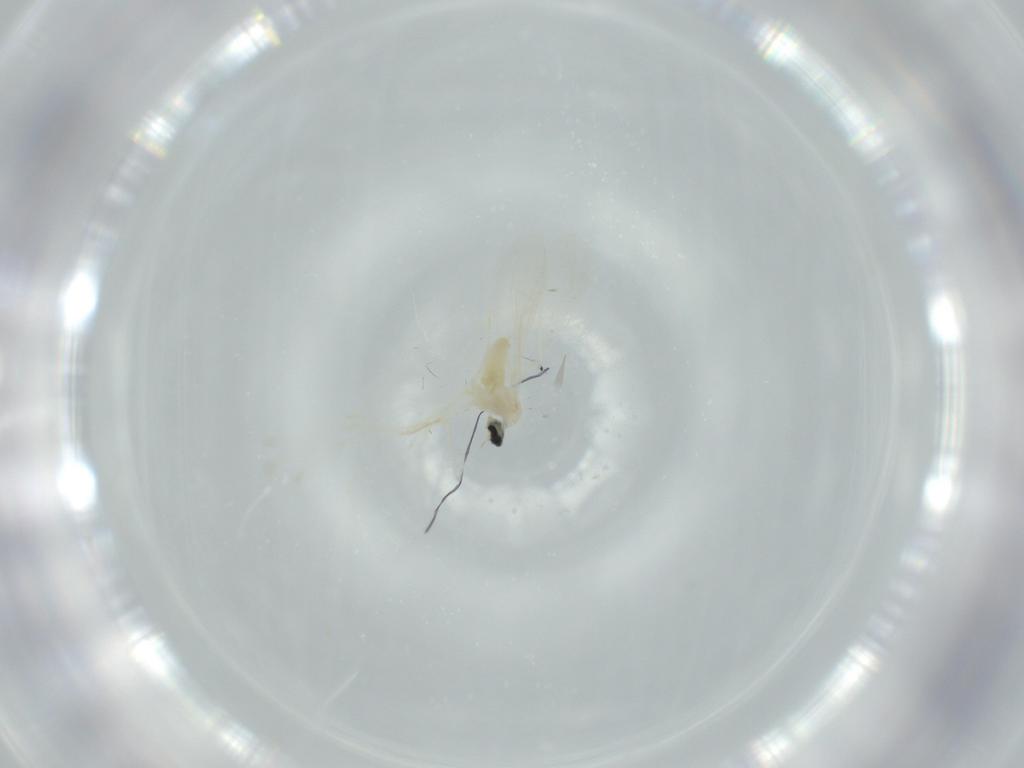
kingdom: Animalia
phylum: Arthropoda
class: Insecta
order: Diptera
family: Cecidomyiidae
